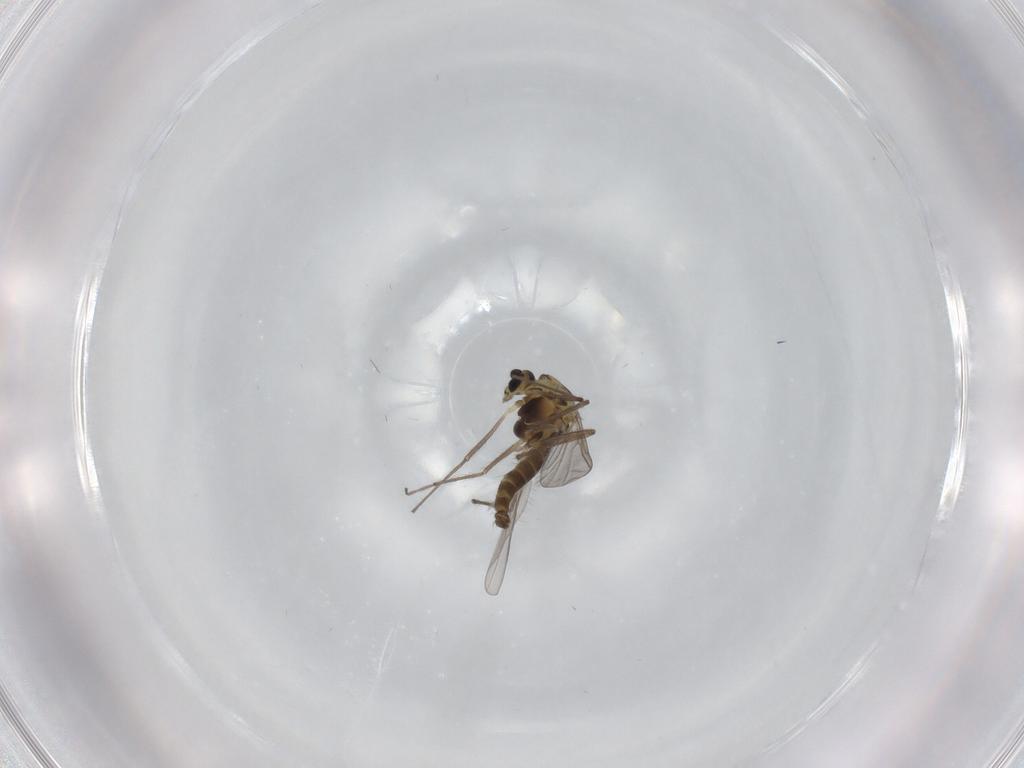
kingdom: Animalia
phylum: Arthropoda
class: Insecta
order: Diptera
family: Chironomidae
